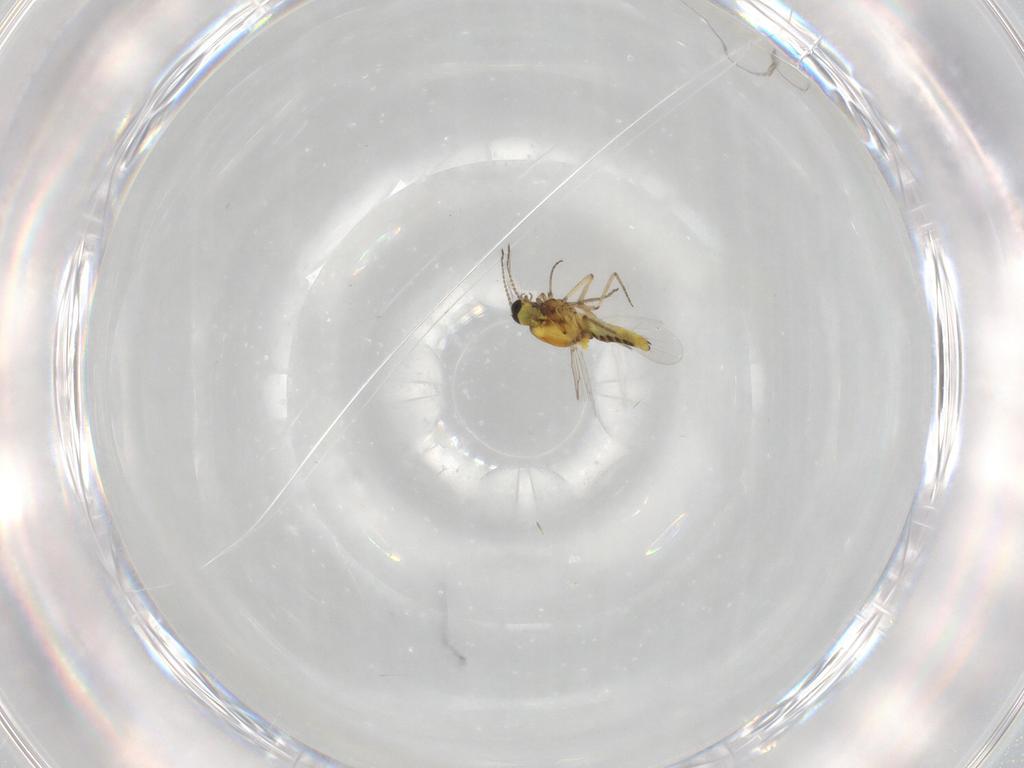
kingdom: Animalia
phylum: Arthropoda
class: Insecta
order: Diptera
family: Ceratopogonidae
